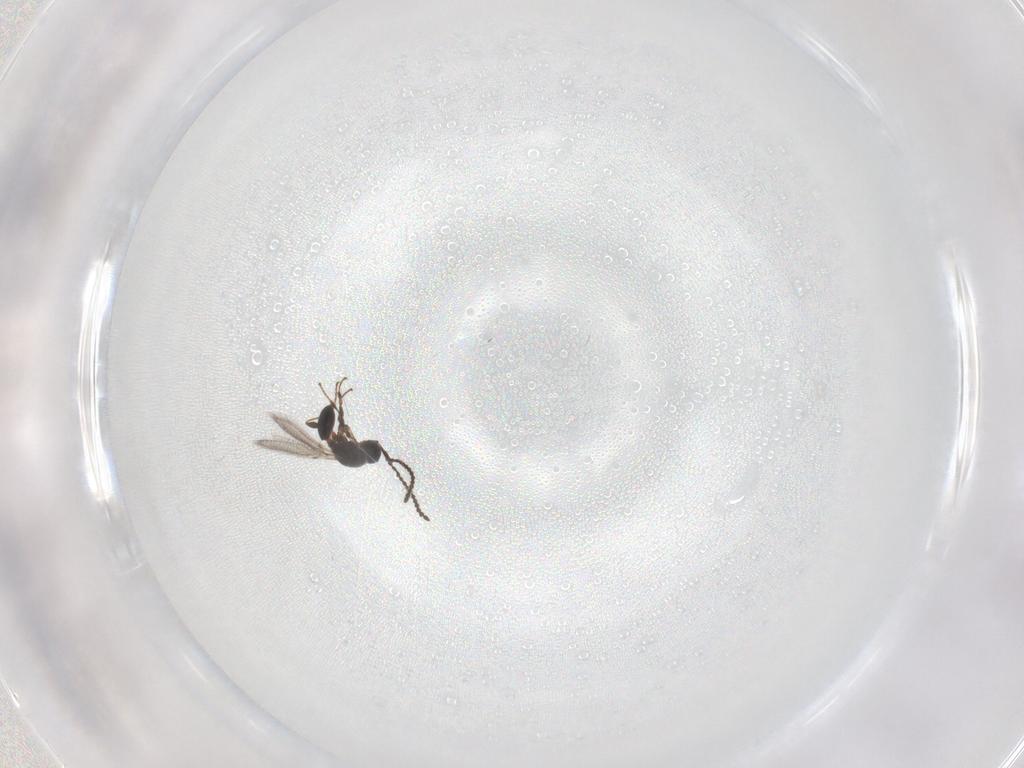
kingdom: Animalia
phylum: Arthropoda
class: Insecta
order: Hymenoptera
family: Diapriidae
